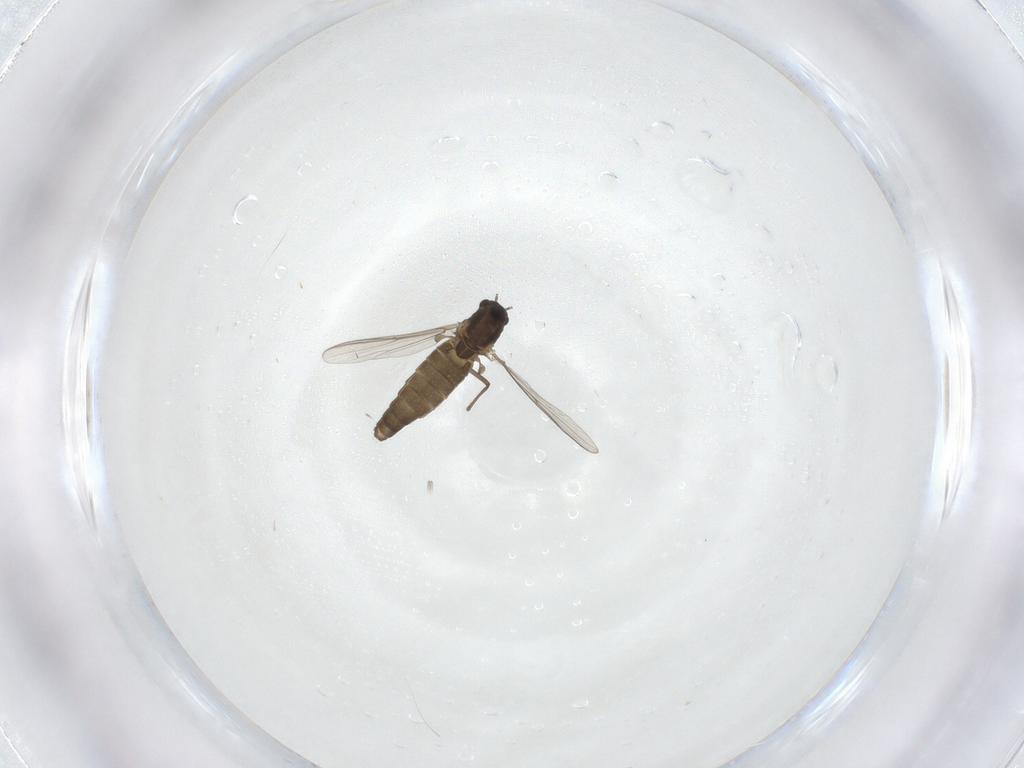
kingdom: Animalia
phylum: Arthropoda
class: Insecta
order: Diptera
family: Chironomidae
